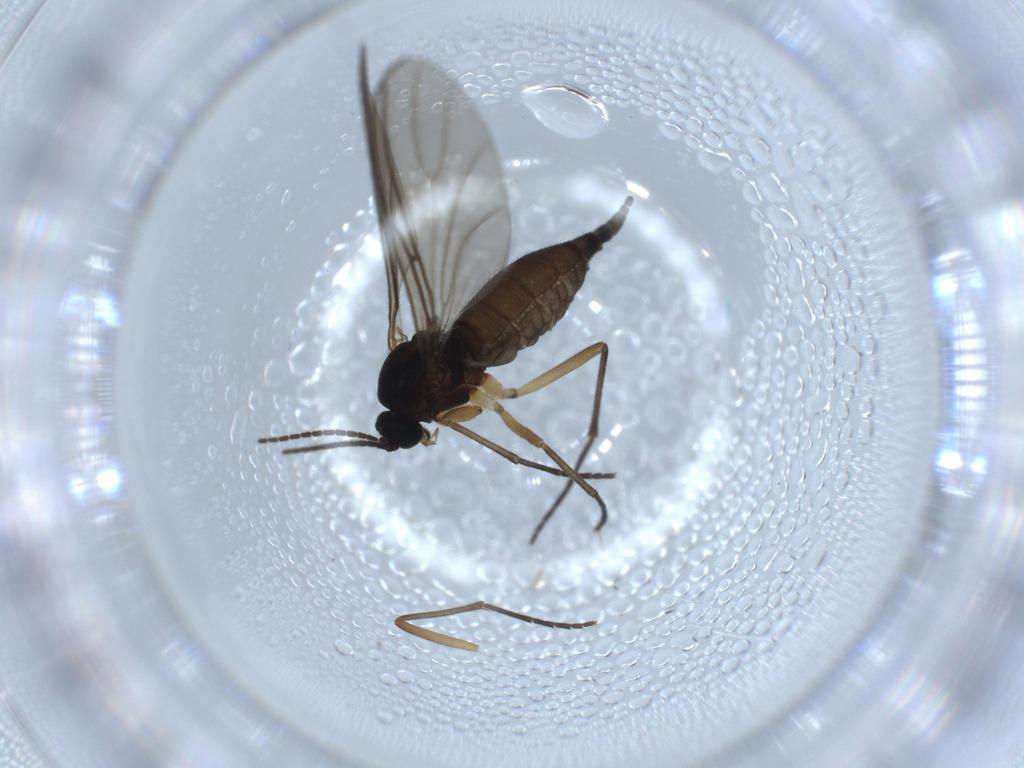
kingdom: Animalia
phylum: Arthropoda
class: Insecta
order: Diptera
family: Sciaridae
